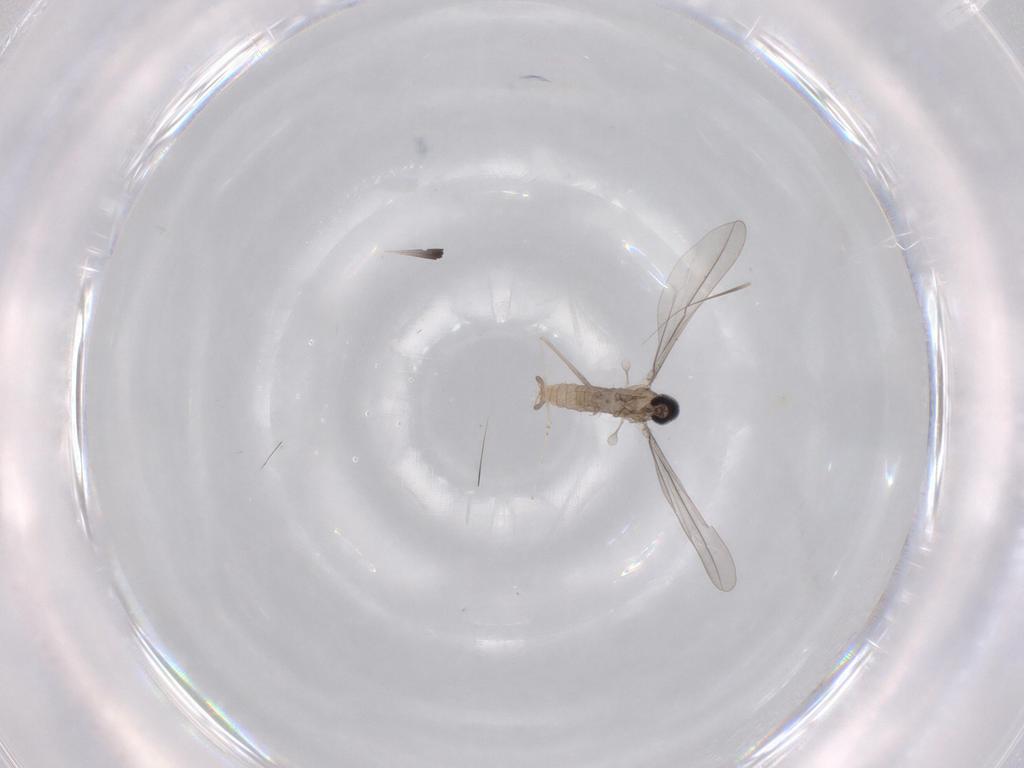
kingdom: Animalia
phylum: Arthropoda
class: Insecta
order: Diptera
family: Cecidomyiidae
